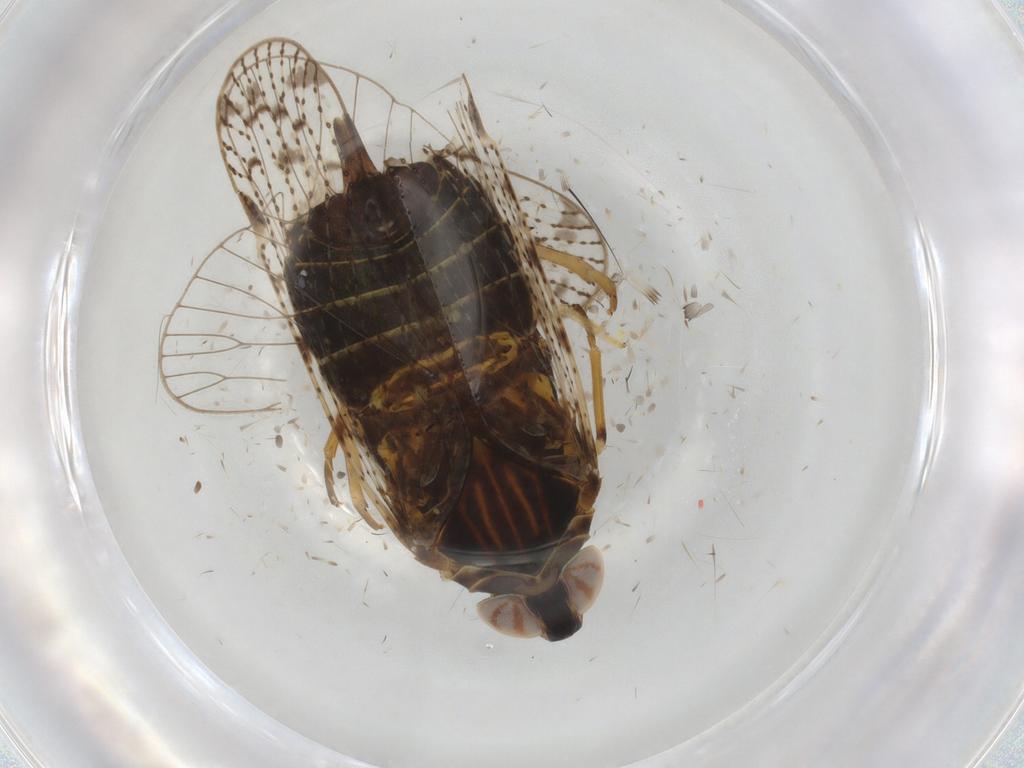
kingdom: Animalia
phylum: Arthropoda
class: Insecta
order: Hemiptera
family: Cixiidae
